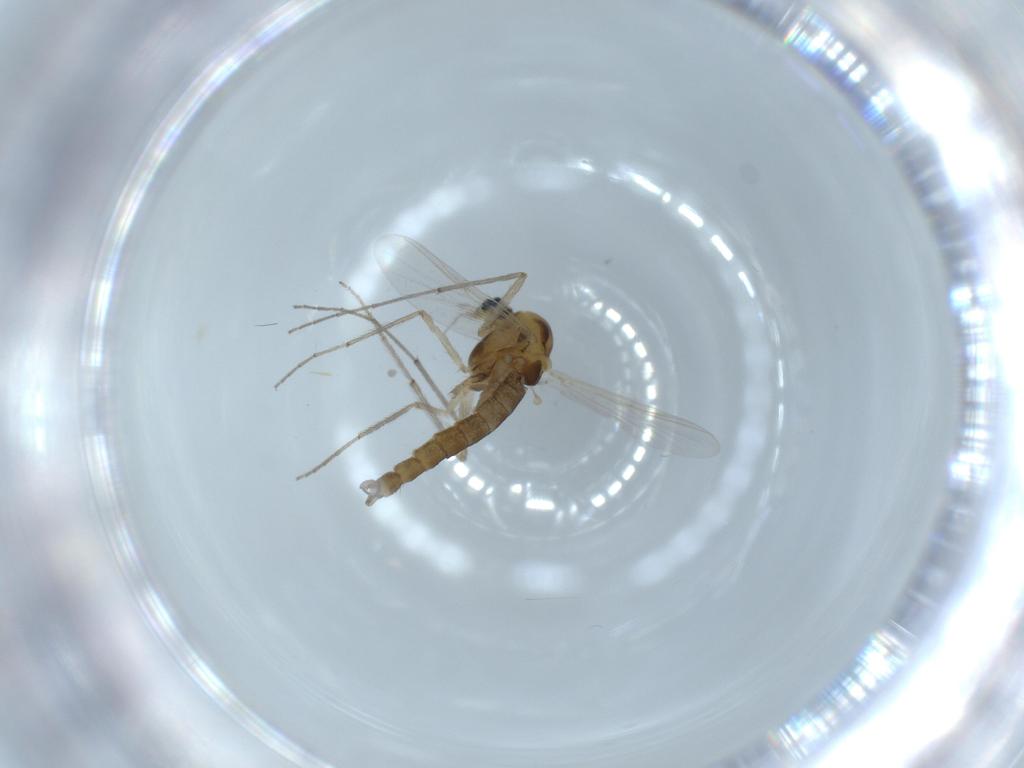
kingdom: Animalia
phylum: Arthropoda
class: Insecta
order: Diptera
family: Chironomidae
